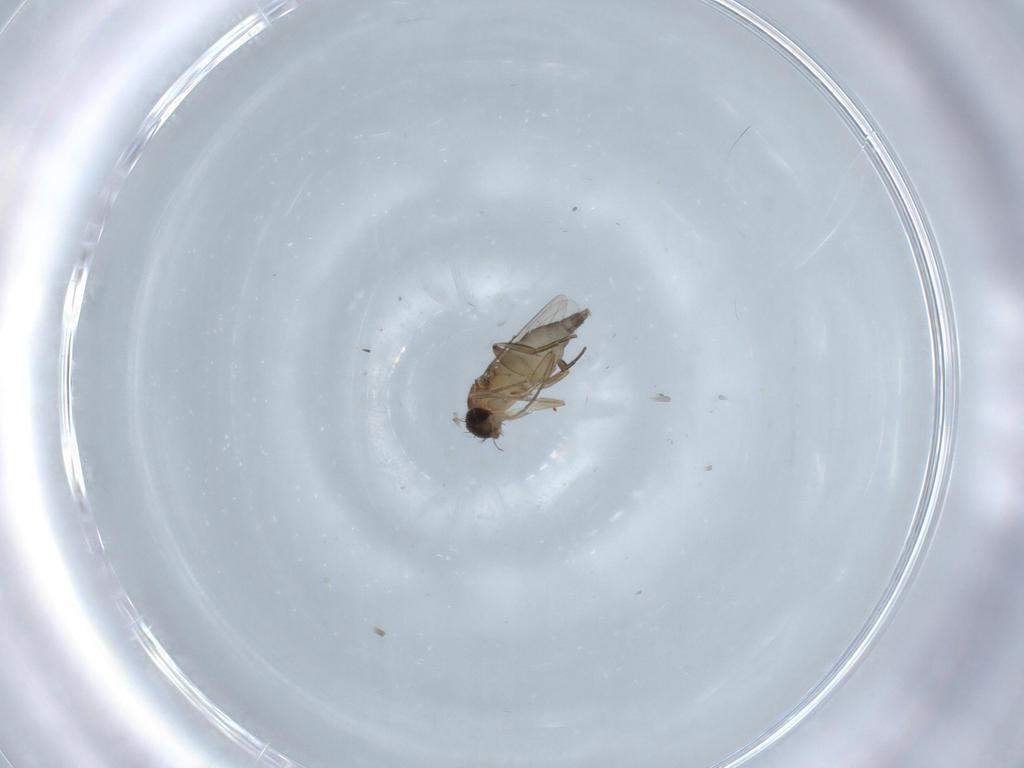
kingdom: Animalia
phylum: Arthropoda
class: Insecta
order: Diptera
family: Phoridae
